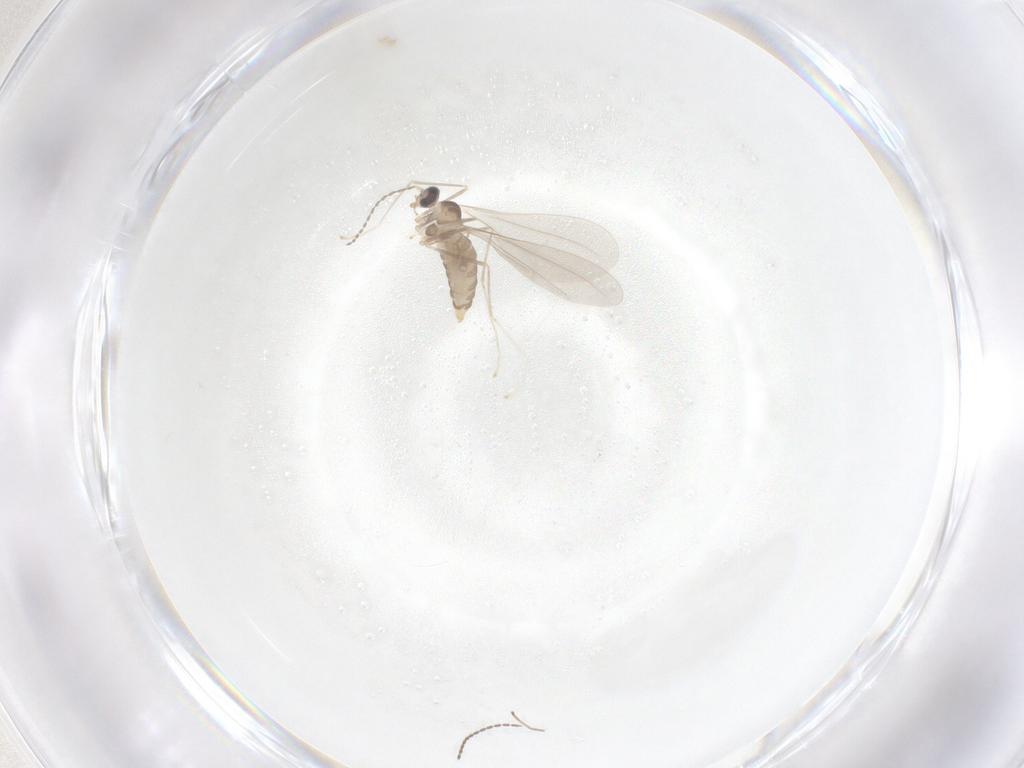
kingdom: Animalia
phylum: Arthropoda
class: Insecta
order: Diptera
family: Cecidomyiidae
